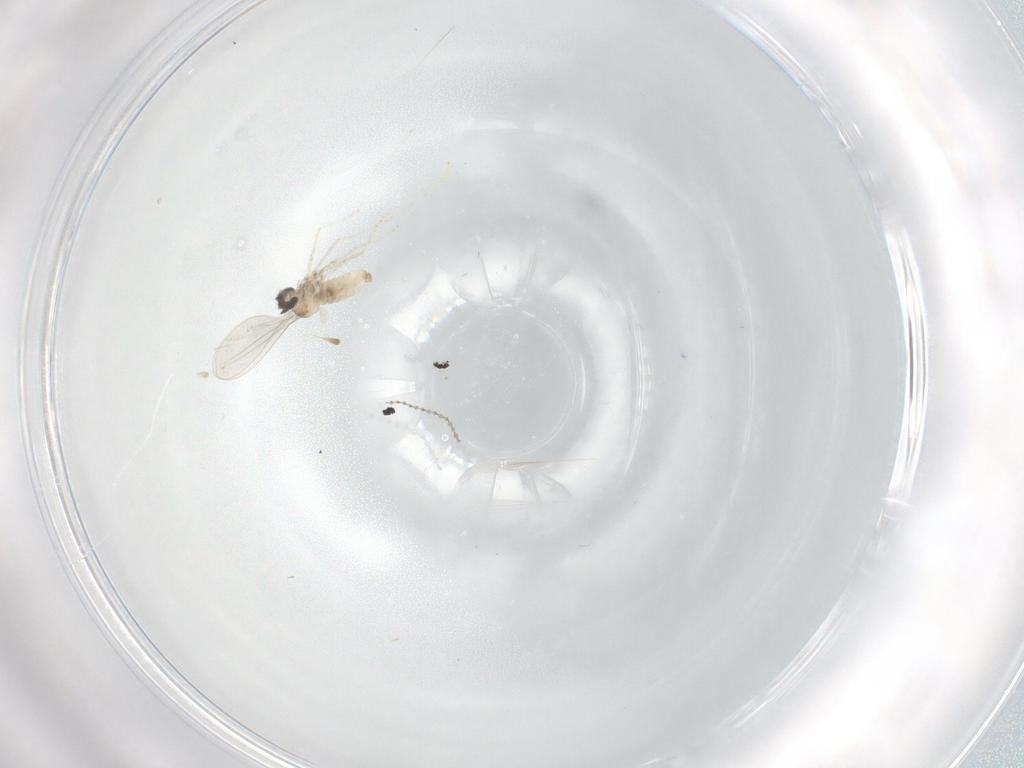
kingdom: Animalia
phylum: Arthropoda
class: Insecta
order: Diptera
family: Cecidomyiidae
